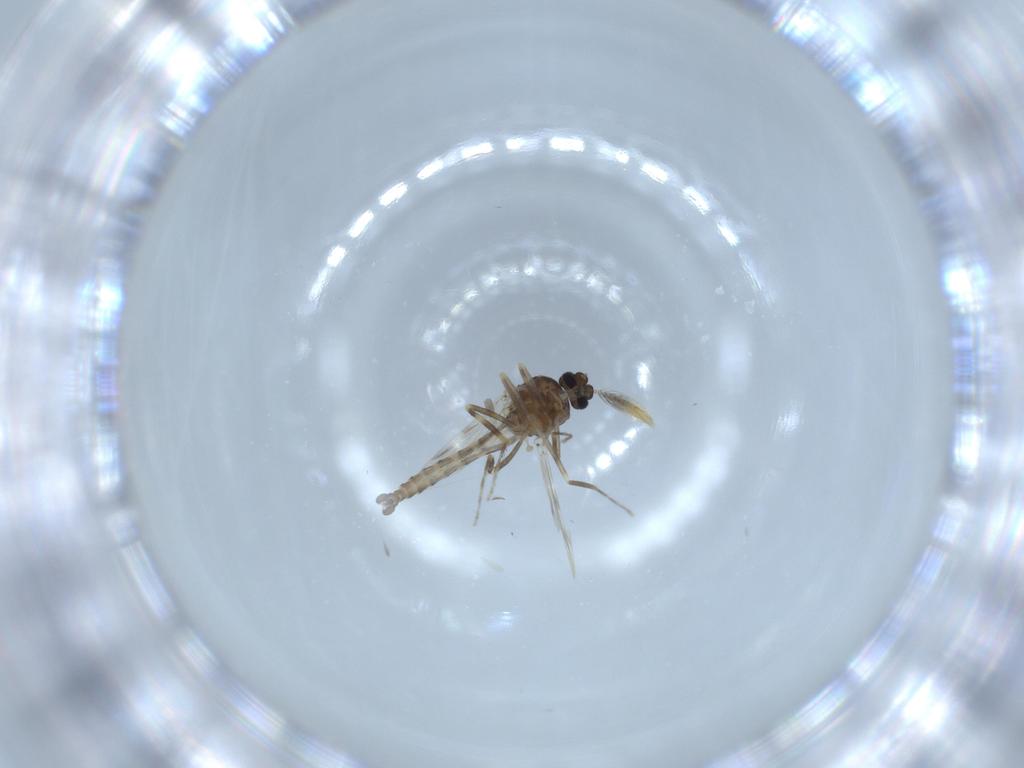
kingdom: Animalia
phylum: Arthropoda
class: Insecta
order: Diptera
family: Ceratopogonidae
